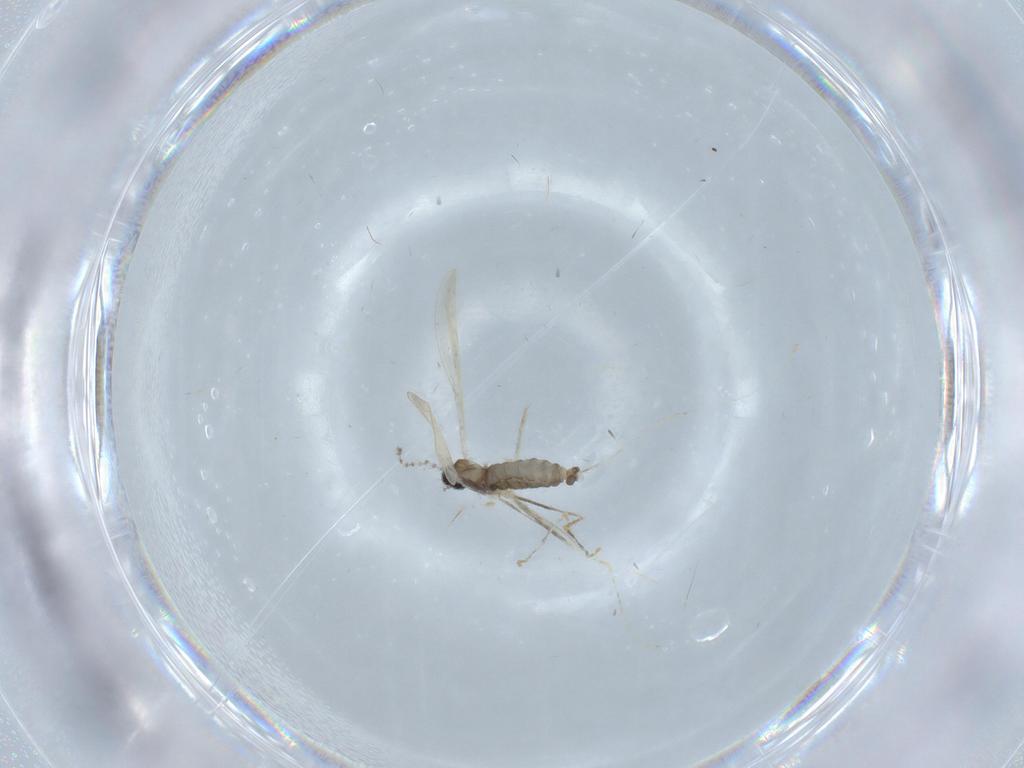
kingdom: Animalia
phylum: Arthropoda
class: Insecta
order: Diptera
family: Cecidomyiidae
